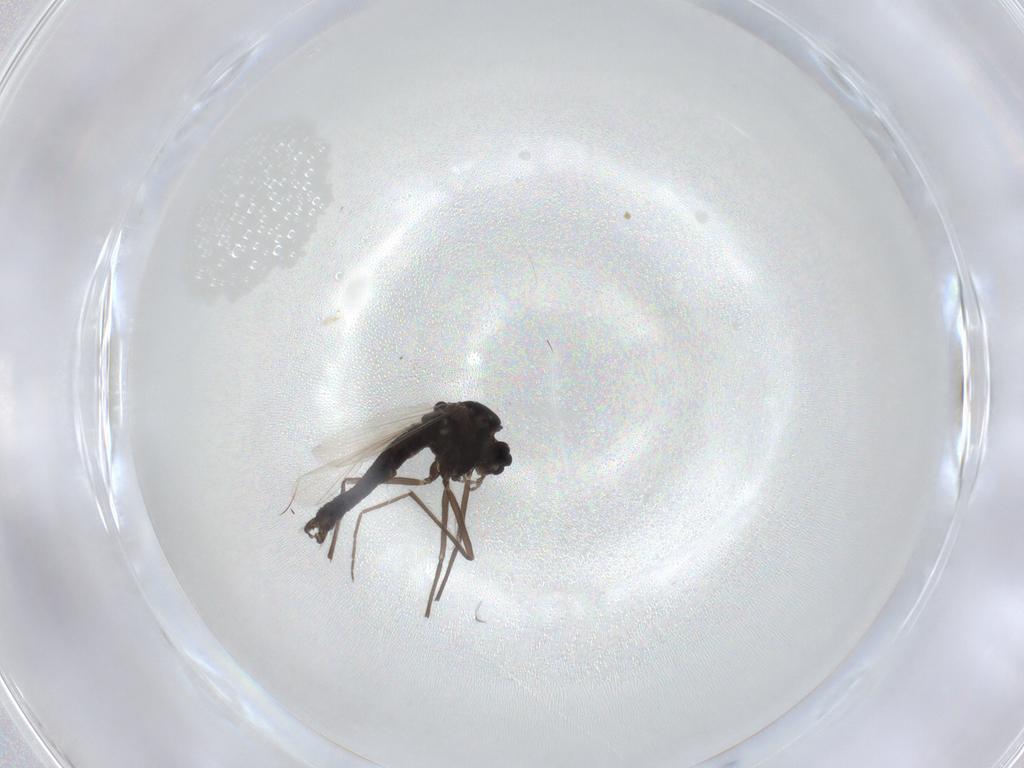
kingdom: Animalia
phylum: Arthropoda
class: Insecta
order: Diptera
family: Chironomidae
